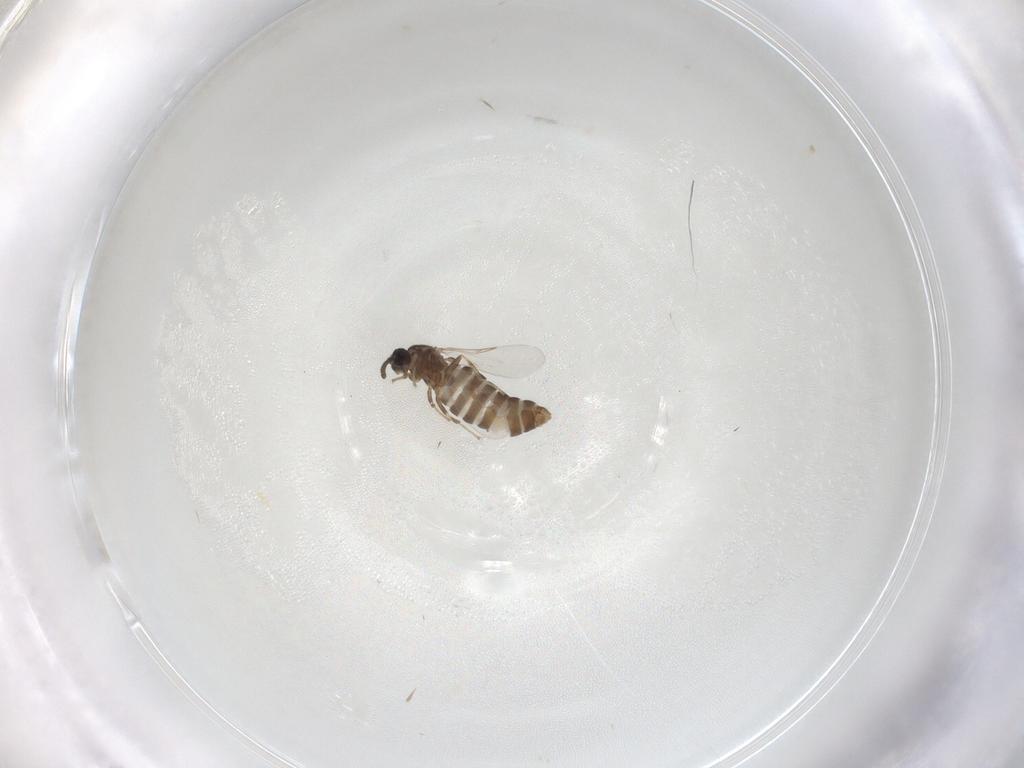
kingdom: Animalia
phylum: Arthropoda
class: Insecta
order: Diptera
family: Scatopsidae
